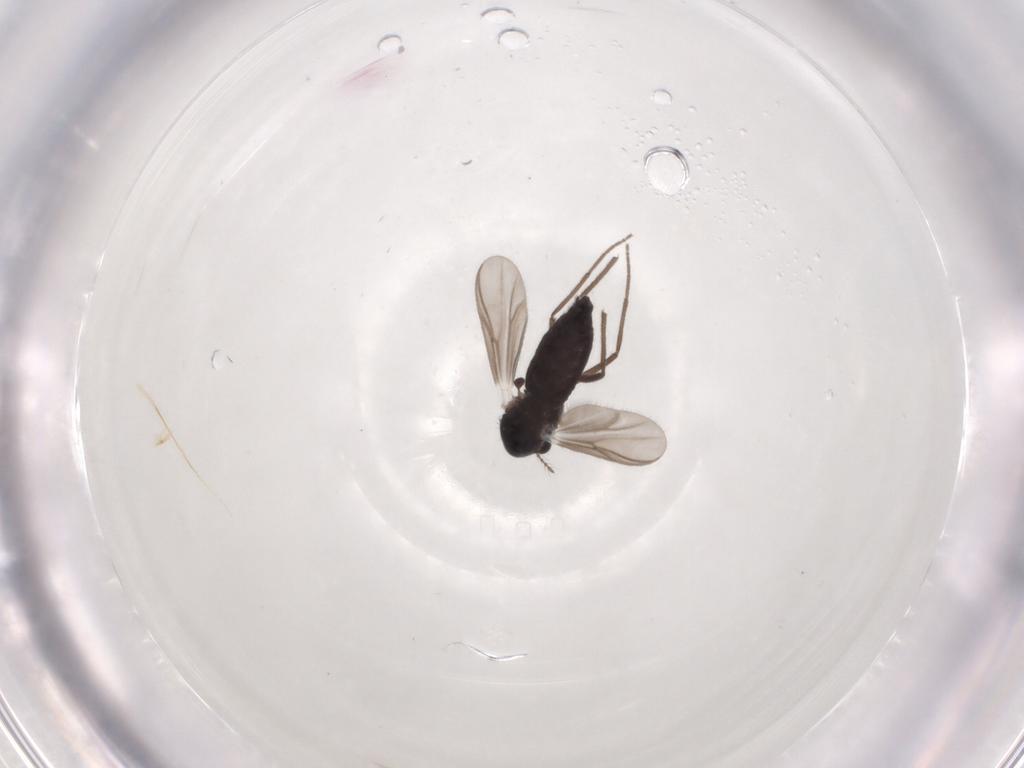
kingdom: Animalia
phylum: Arthropoda
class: Insecta
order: Diptera
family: Chironomidae
